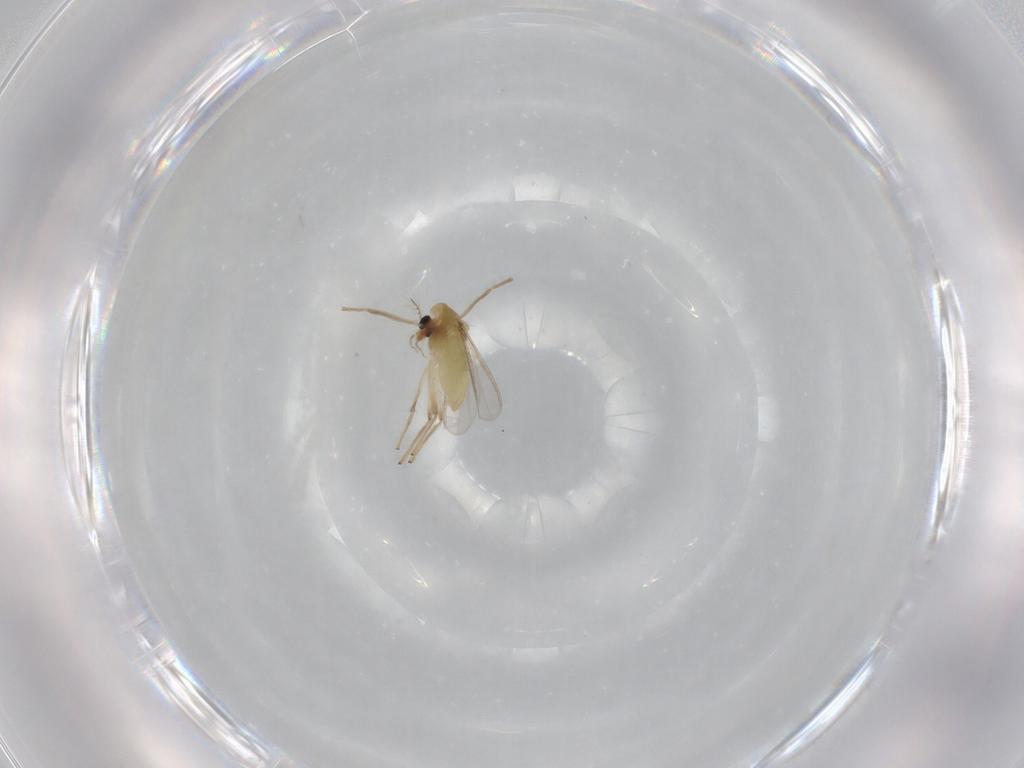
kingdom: Animalia
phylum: Arthropoda
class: Insecta
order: Diptera
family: Chironomidae
